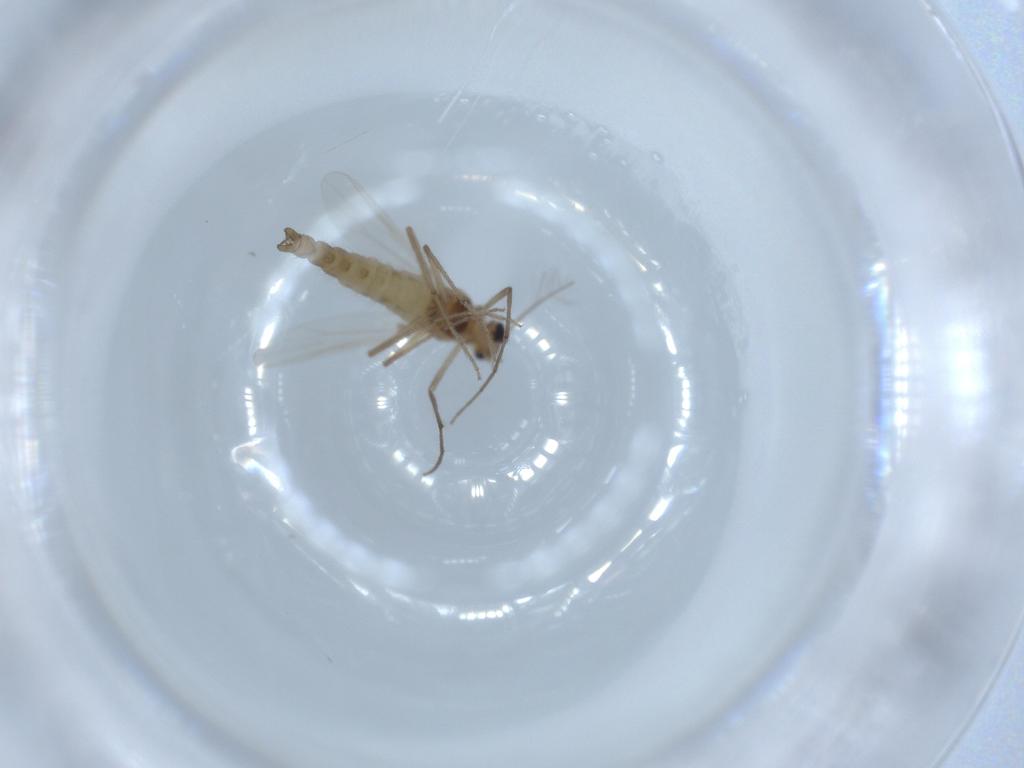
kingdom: Animalia
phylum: Arthropoda
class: Insecta
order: Diptera
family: Chironomidae
